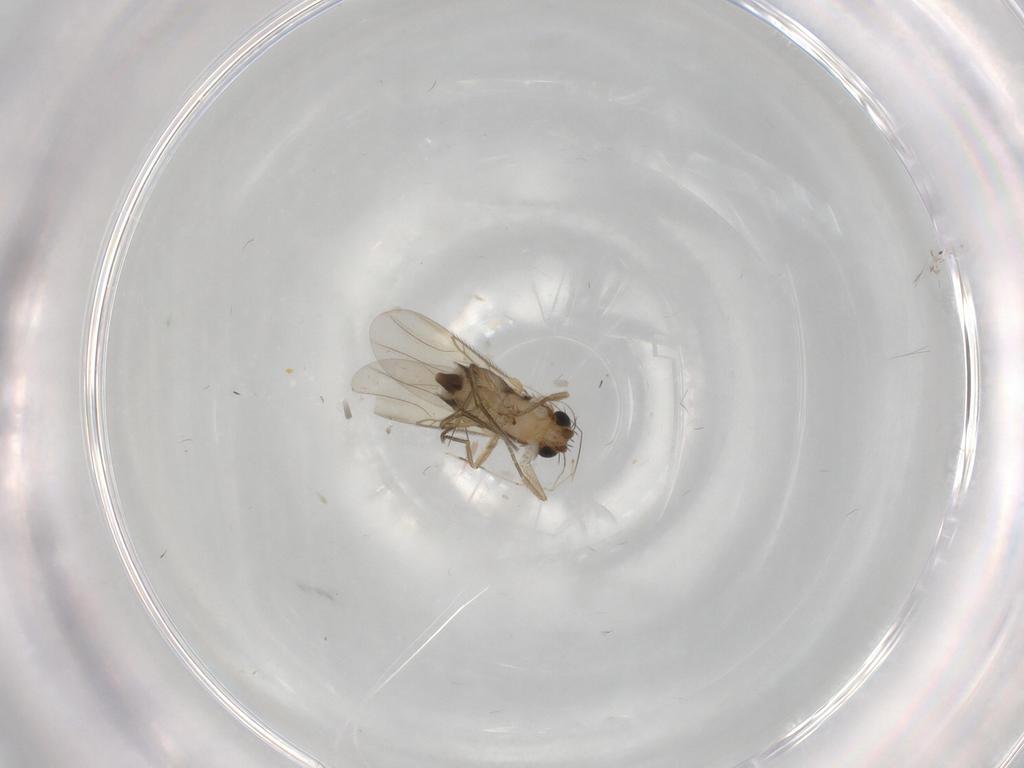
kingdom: Animalia
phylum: Arthropoda
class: Insecta
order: Diptera
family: Phoridae
